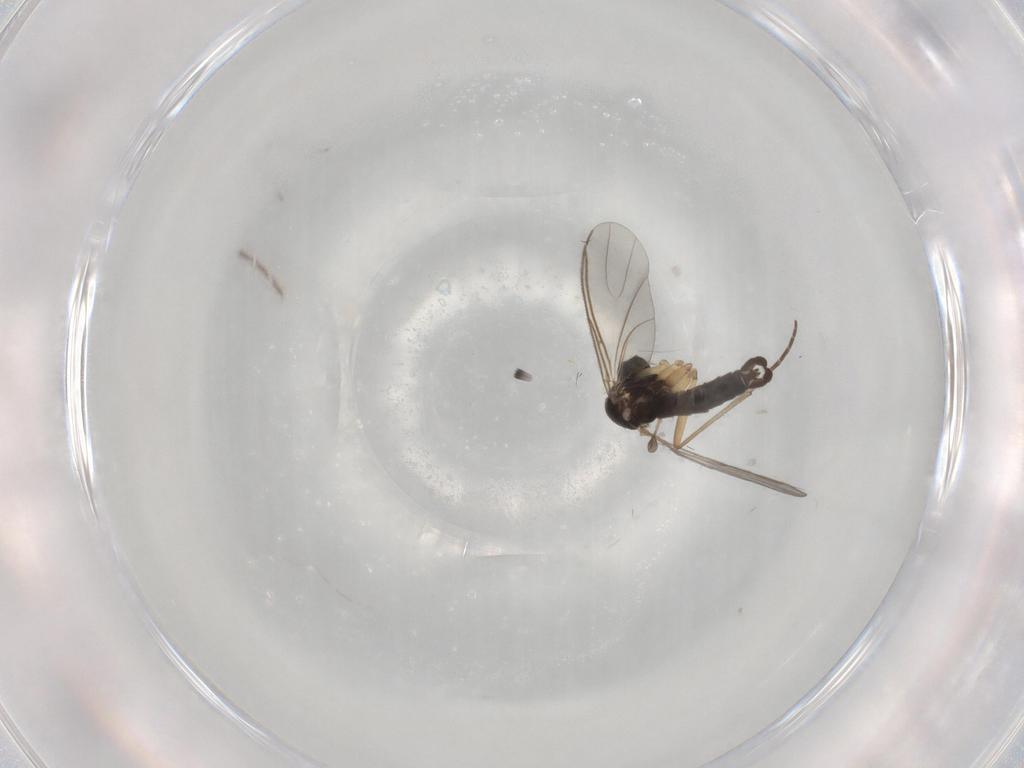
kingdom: Animalia
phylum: Arthropoda
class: Insecta
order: Diptera
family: Sciaridae
